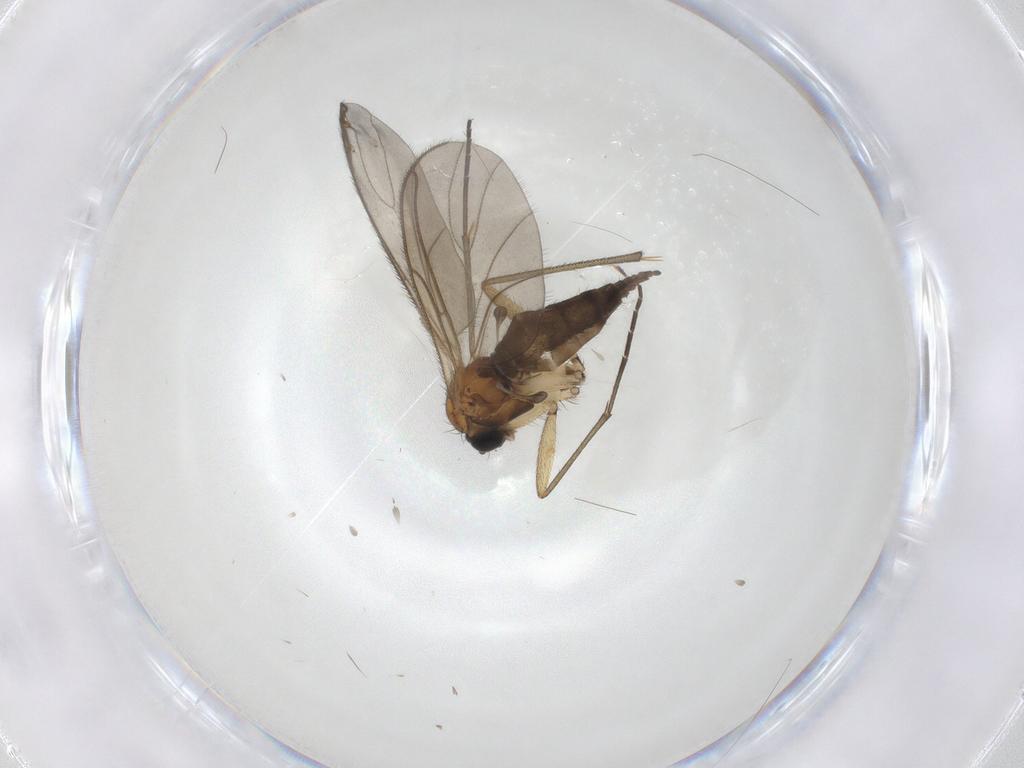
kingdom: Animalia
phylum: Arthropoda
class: Insecta
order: Diptera
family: Sciaridae
